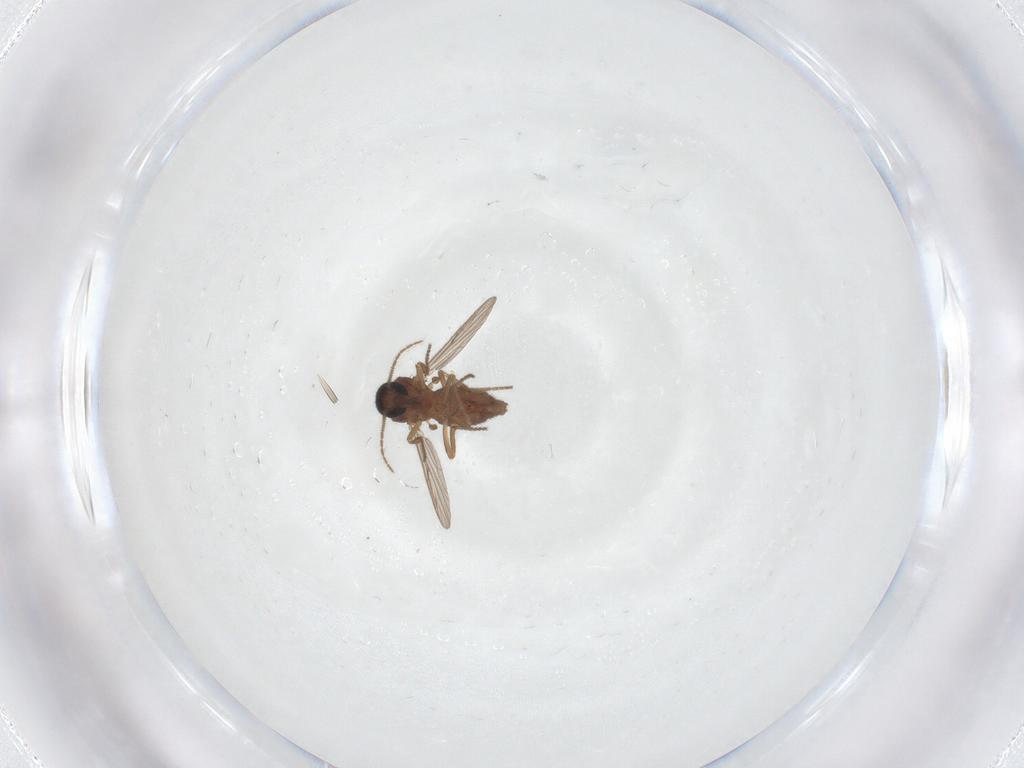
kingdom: Animalia
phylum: Arthropoda
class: Insecta
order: Diptera
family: Ceratopogonidae
